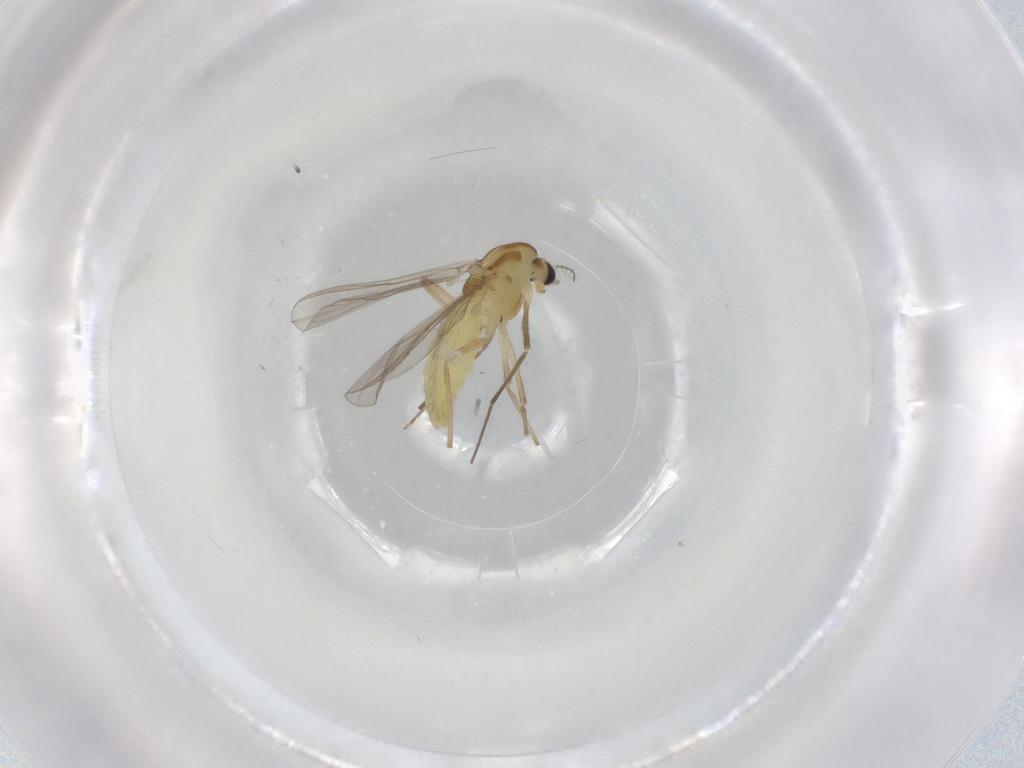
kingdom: Animalia
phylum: Arthropoda
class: Insecta
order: Diptera
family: Chironomidae
